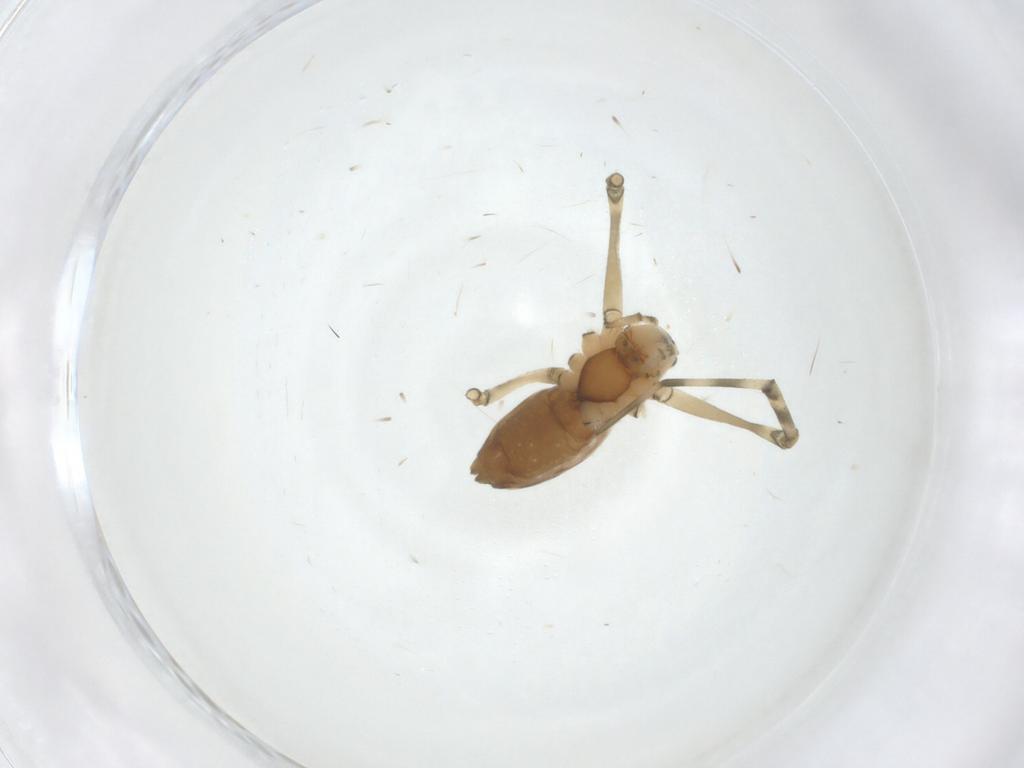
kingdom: Animalia
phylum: Arthropoda
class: Arachnida
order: Araneae
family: Linyphiidae
